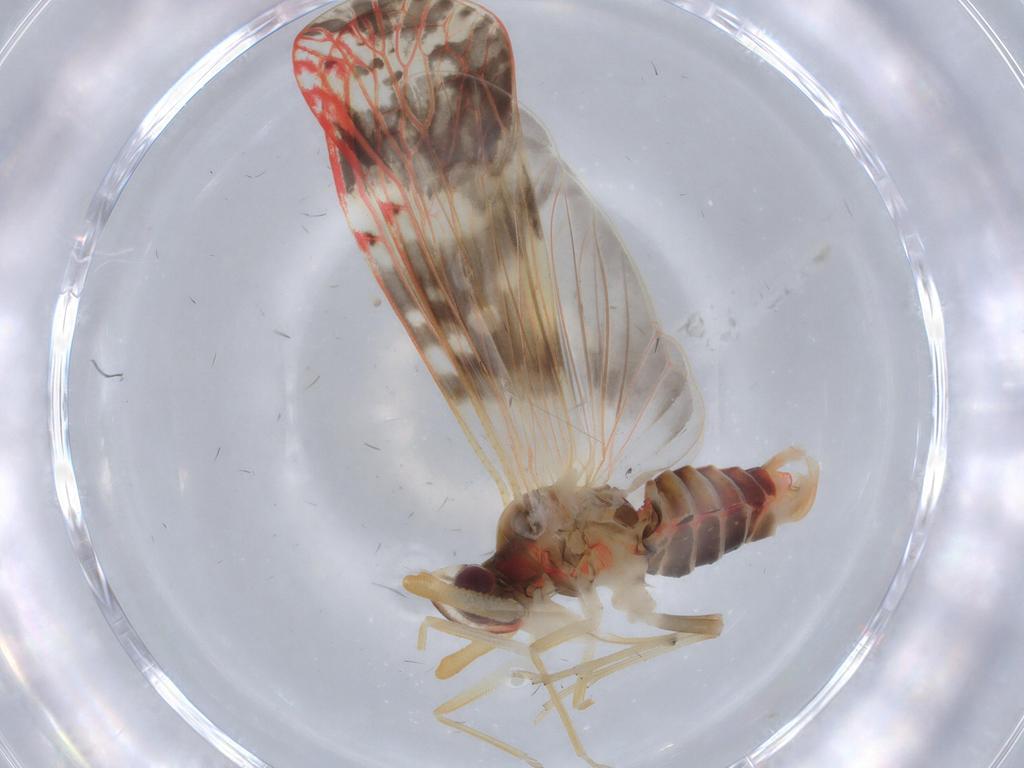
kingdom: Animalia
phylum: Arthropoda
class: Insecta
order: Hemiptera
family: Derbidae
